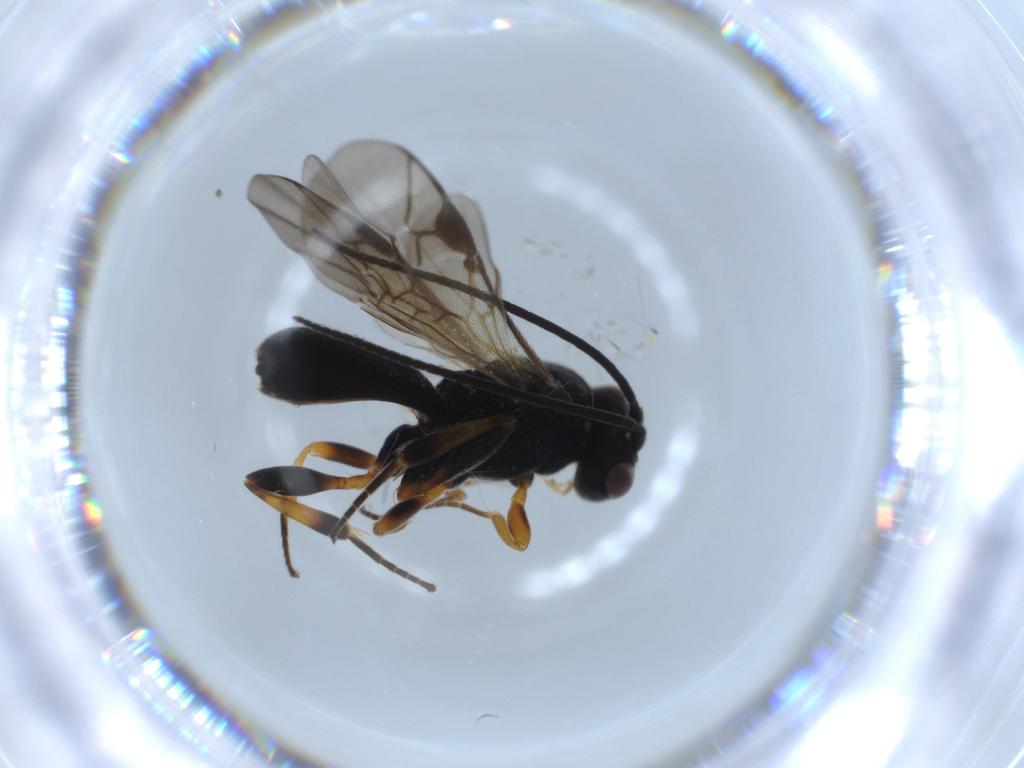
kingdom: Animalia
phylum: Arthropoda
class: Insecta
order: Hymenoptera
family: Braconidae
